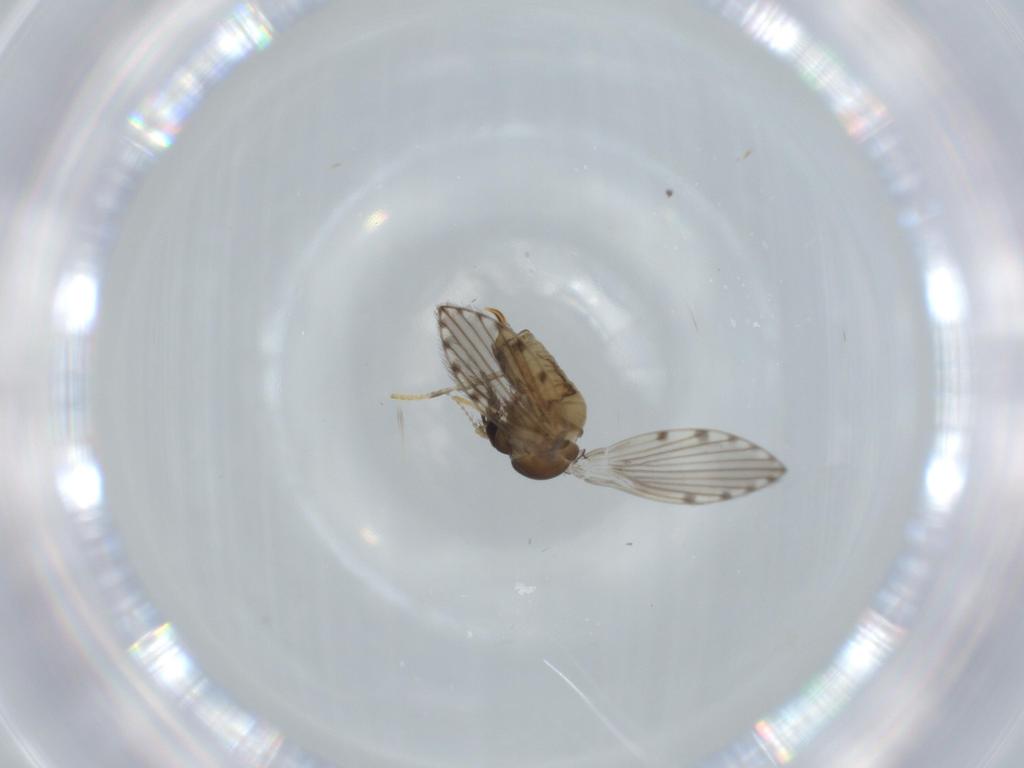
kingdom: Animalia
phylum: Arthropoda
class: Insecta
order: Diptera
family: Psychodidae
